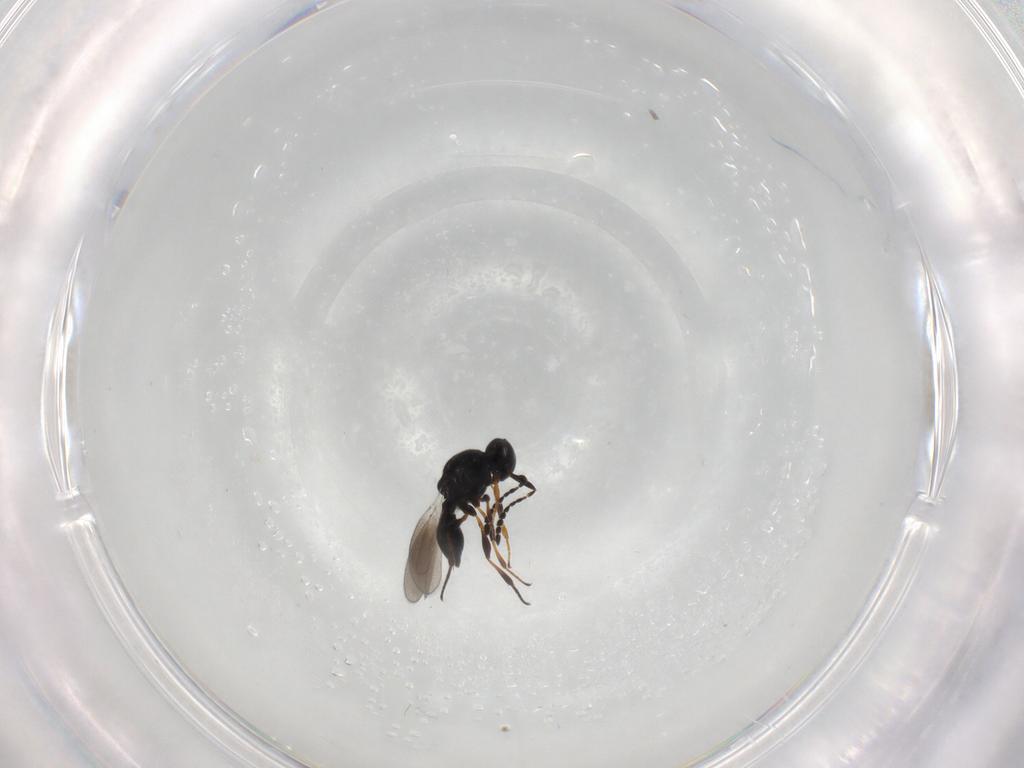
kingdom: Animalia
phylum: Arthropoda
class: Insecta
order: Hymenoptera
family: Platygastridae
